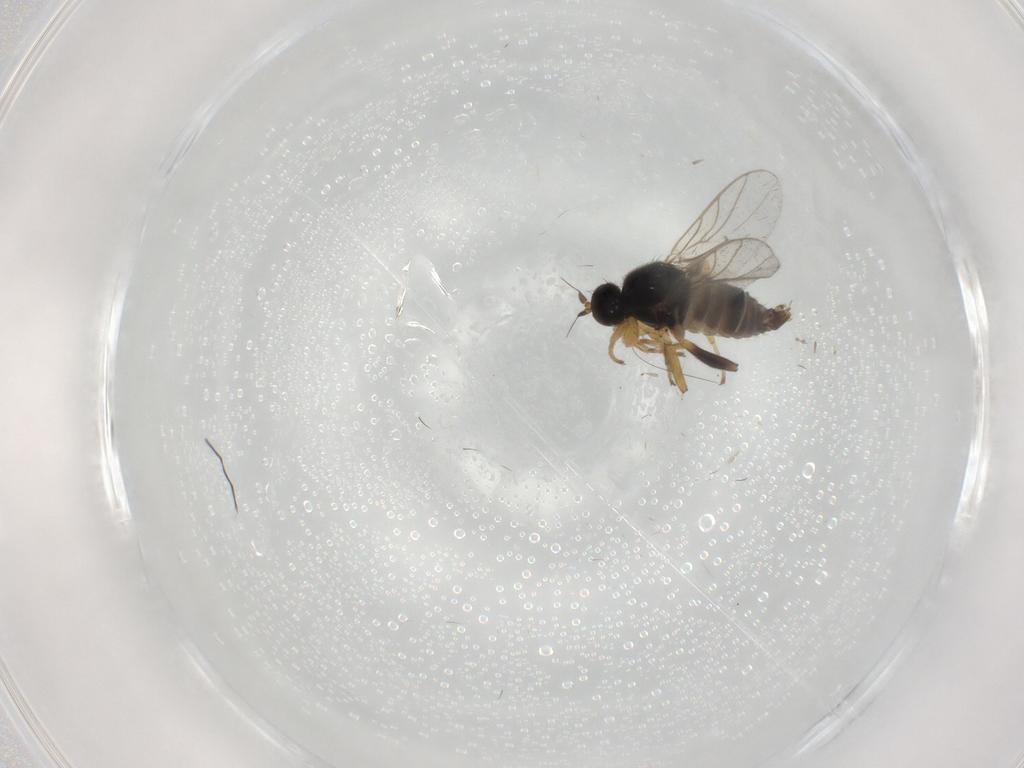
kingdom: Animalia
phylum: Arthropoda
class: Insecta
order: Diptera
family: Hybotidae
